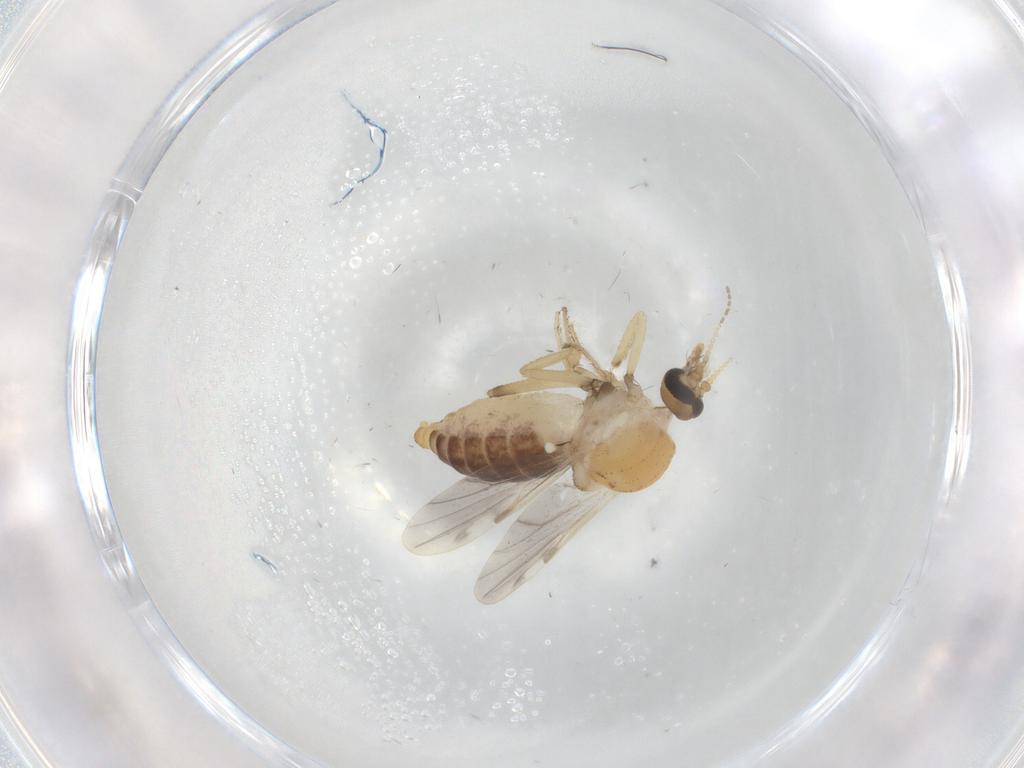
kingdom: Animalia
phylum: Arthropoda
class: Insecta
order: Diptera
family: Ceratopogonidae
